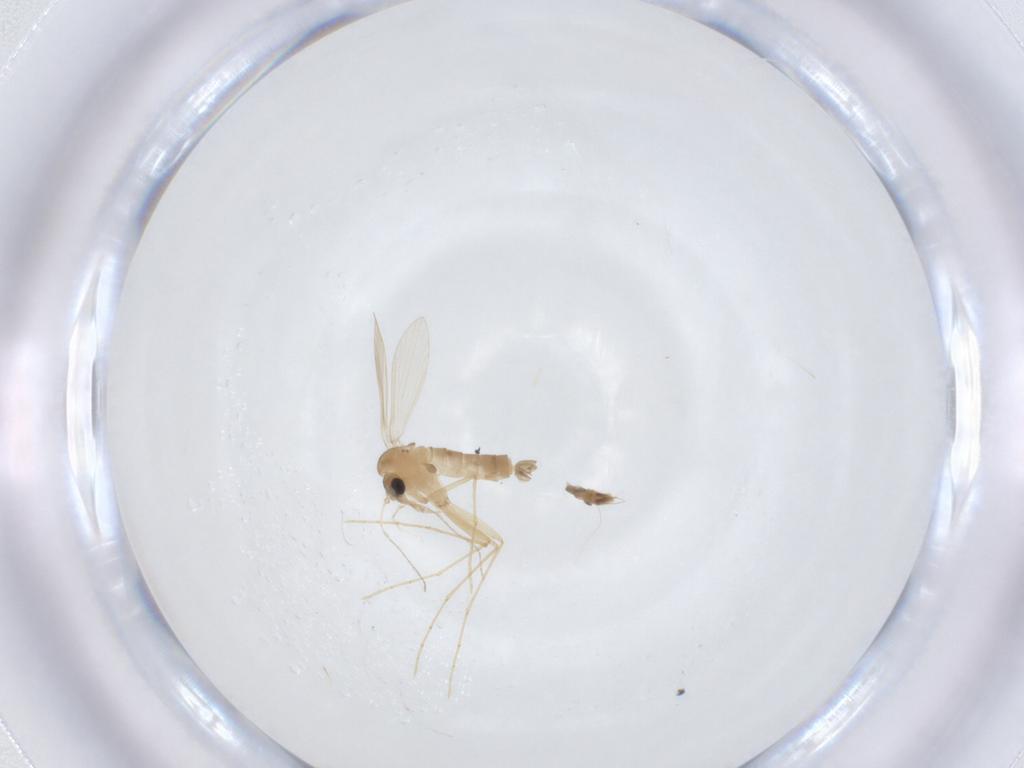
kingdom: Animalia
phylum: Arthropoda
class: Insecta
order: Diptera
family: Psychodidae
